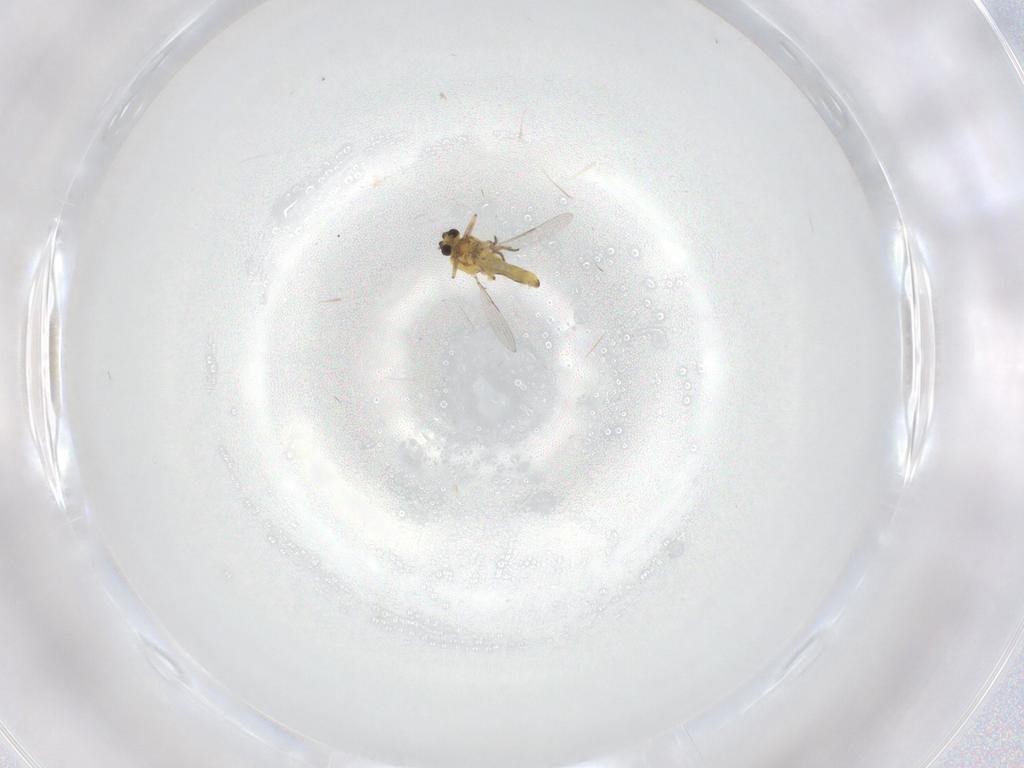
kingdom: Animalia
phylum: Arthropoda
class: Insecta
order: Diptera
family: Ceratopogonidae
